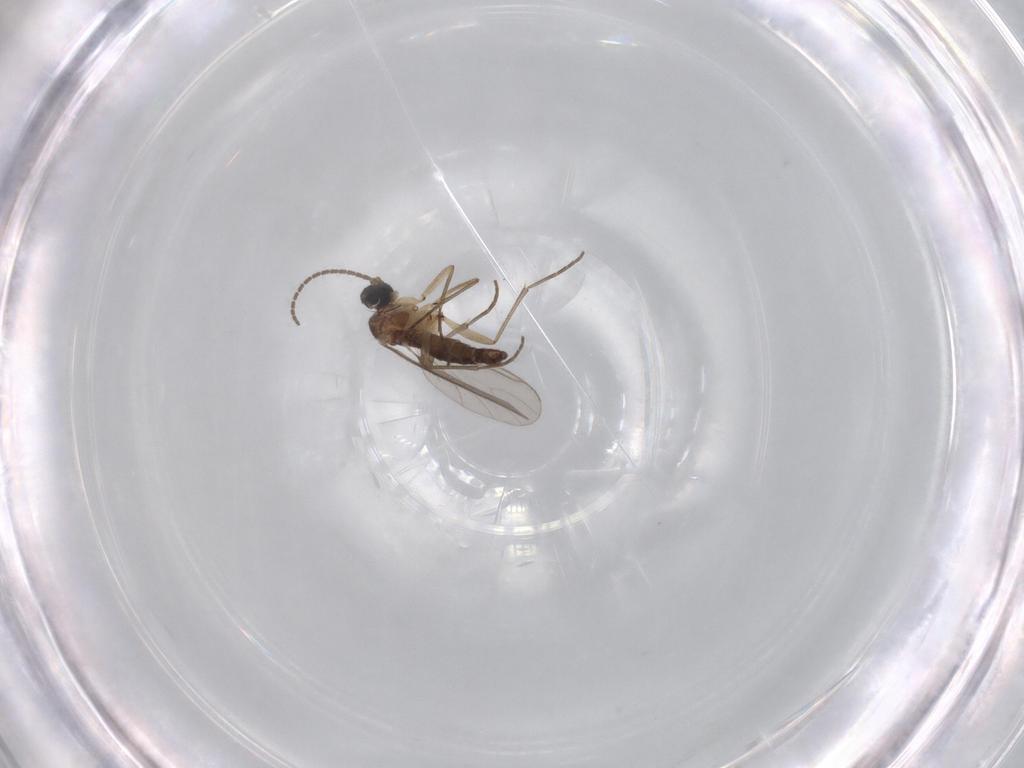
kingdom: Animalia
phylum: Arthropoda
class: Insecta
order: Diptera
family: Sciaridae
